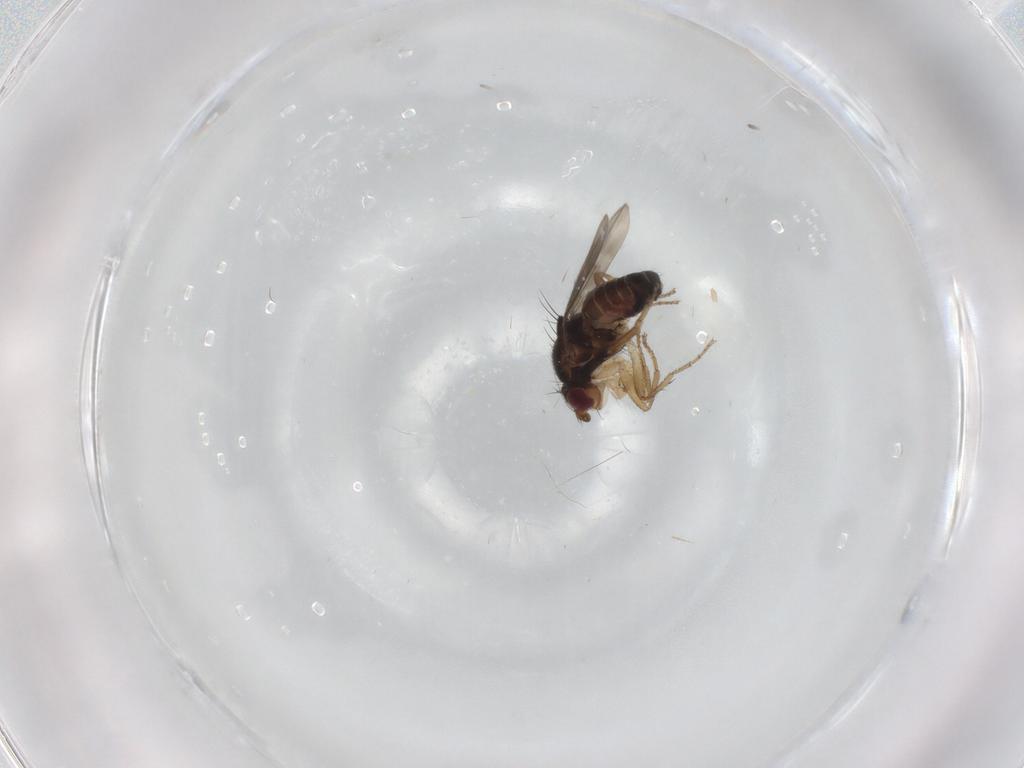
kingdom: Animalia
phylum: Arthropoda
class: Insecta
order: Diptera
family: Sphaeroceridae
